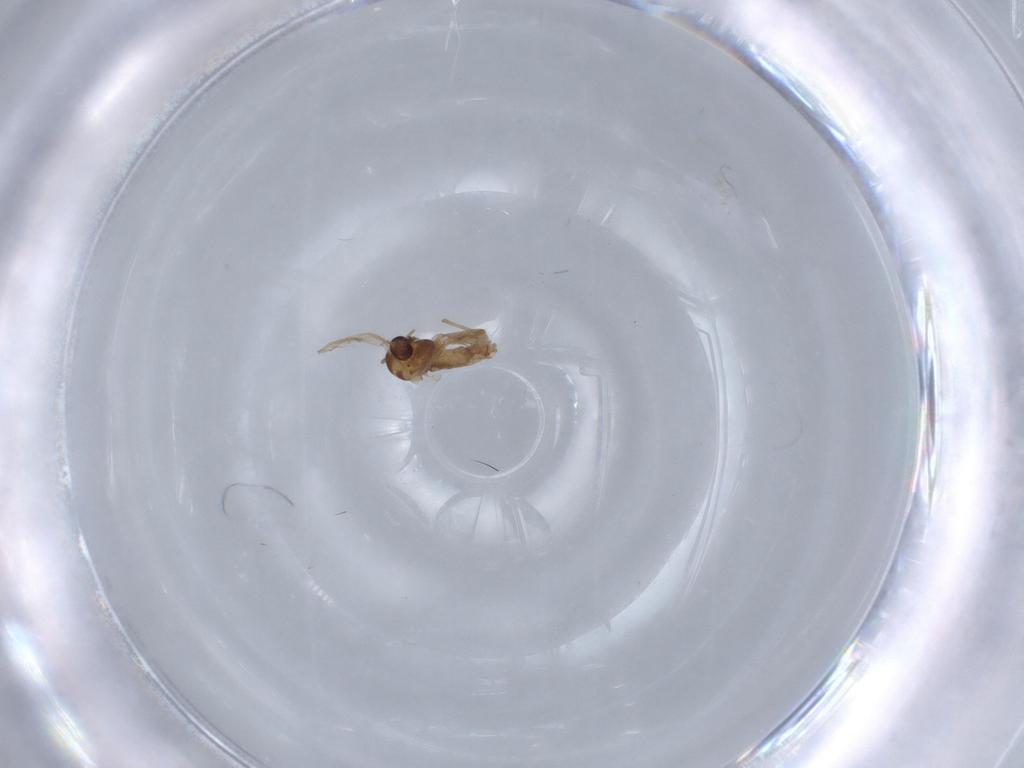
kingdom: Animalia
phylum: Arthropoda
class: Insecta
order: Diptera
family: Chironomidae
